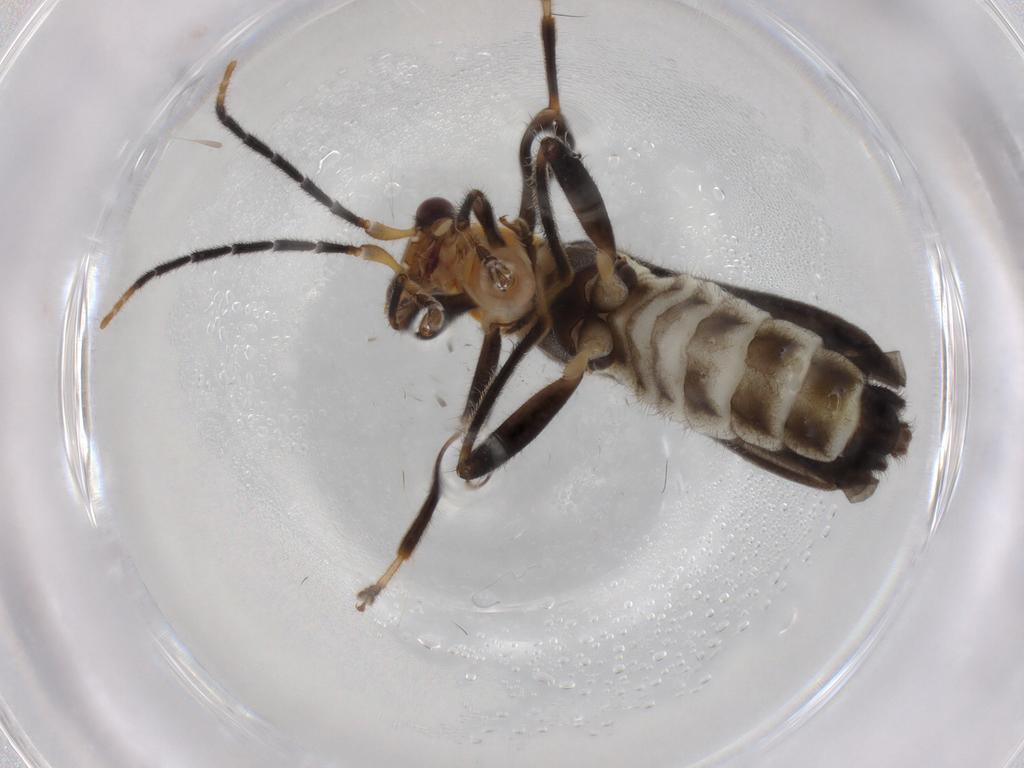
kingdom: Animalia
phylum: Arthropoda
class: Insecta
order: Coleoptera
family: Cantharidae
